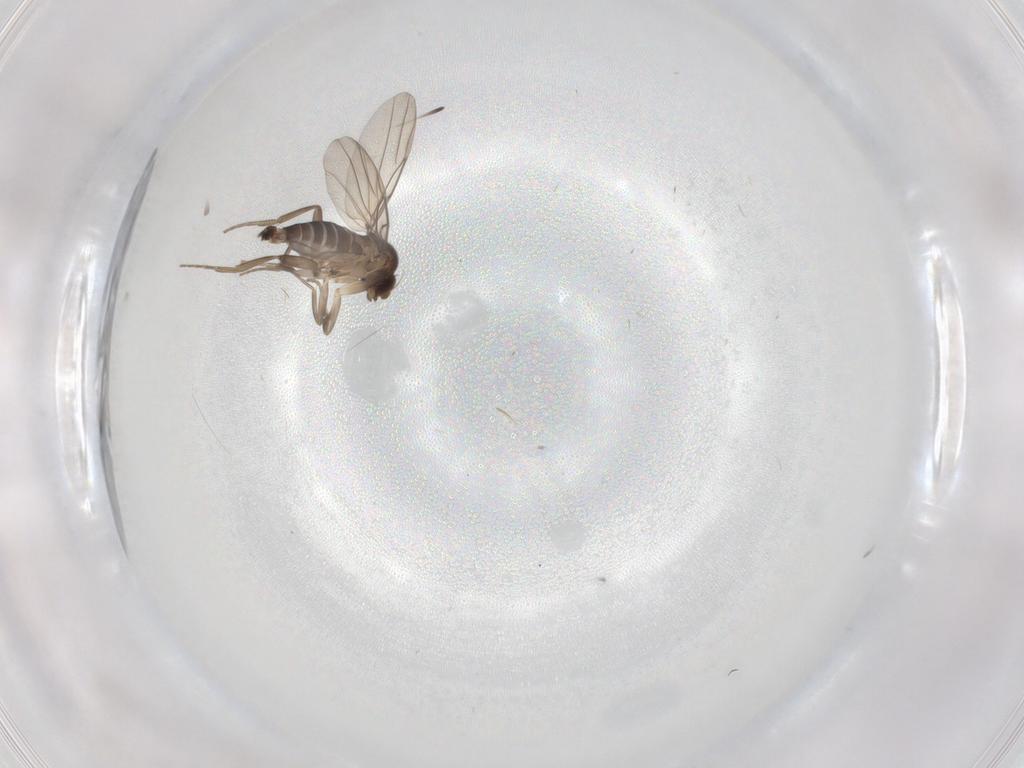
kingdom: Animalia
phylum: Arthropoda
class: Insecta
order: Diptera
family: Phoridae
